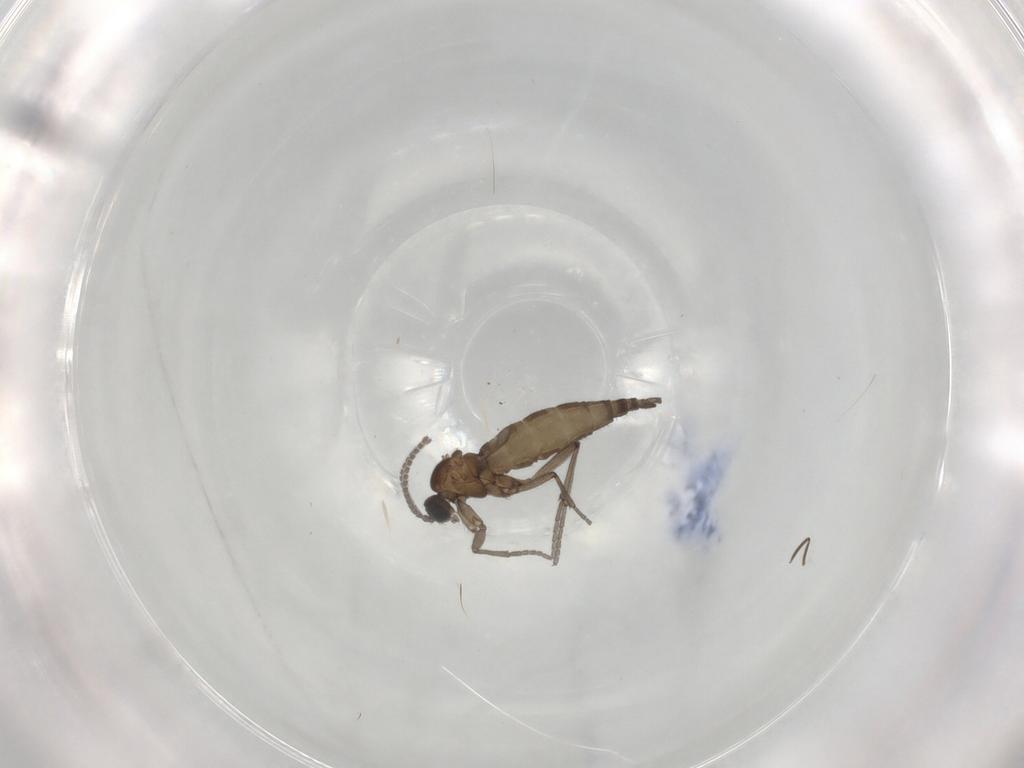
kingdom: Animalia
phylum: Arthropoda
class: Insecta
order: Diptera
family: Sciaridae
